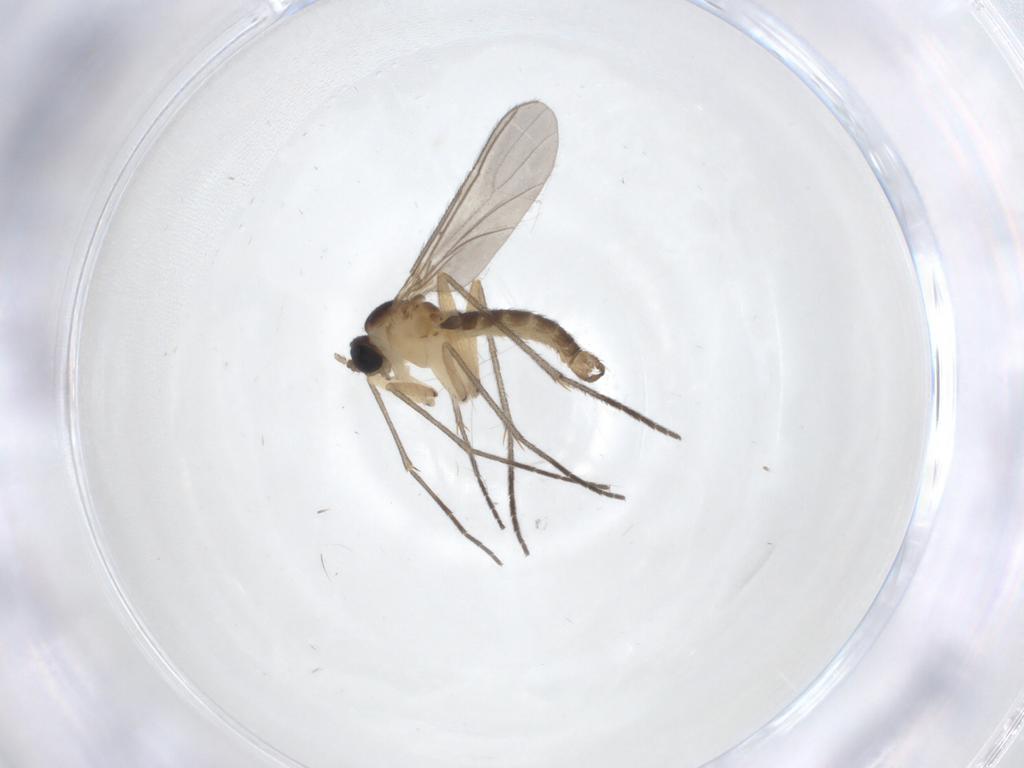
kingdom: Animalia
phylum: Arthropoda
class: Insecta
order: Diptera
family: Sciaridae
